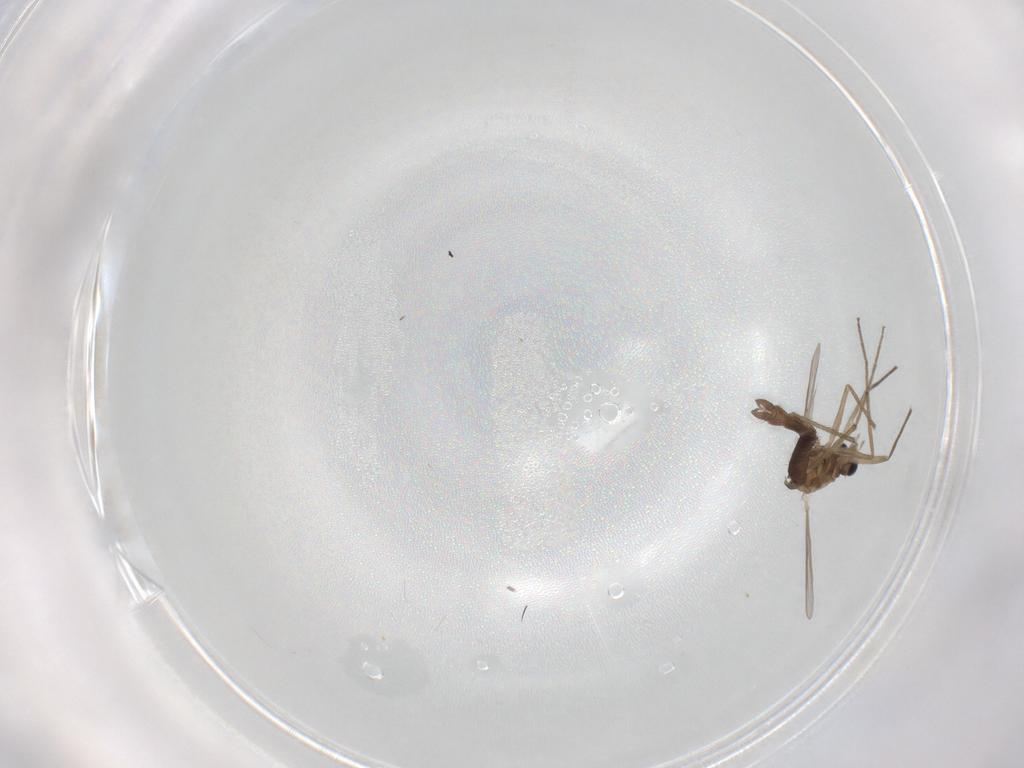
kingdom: Animalia
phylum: Arthropoda
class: Insecta
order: Diptera
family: Chironomidae
